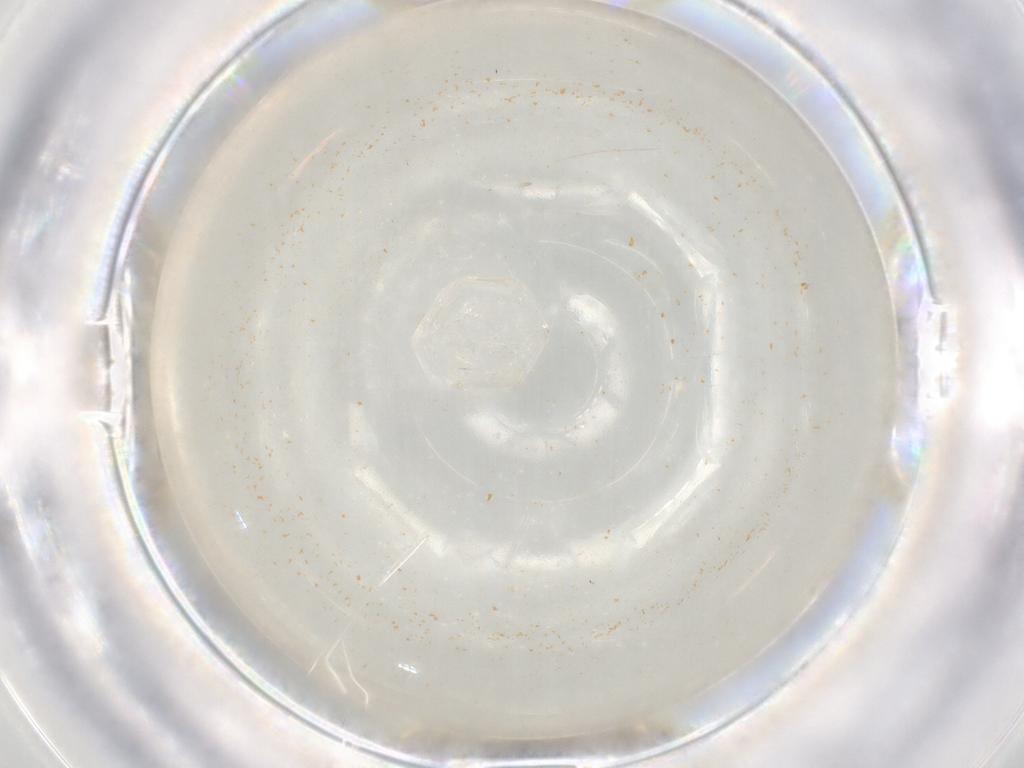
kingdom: Animalia
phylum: Arthropoda
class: Insecta
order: Diptera
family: Cecidomyiidae
